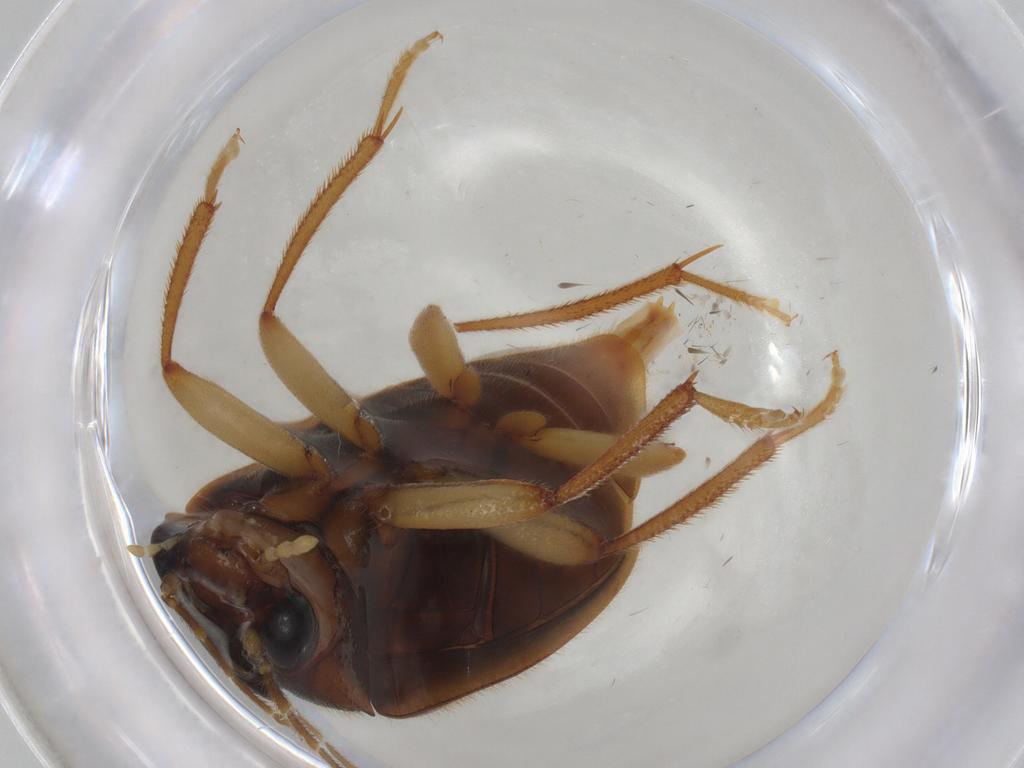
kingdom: Animalia
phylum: Arthropoda
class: Insecta
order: Coleoptera
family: Ptilodactylidae
